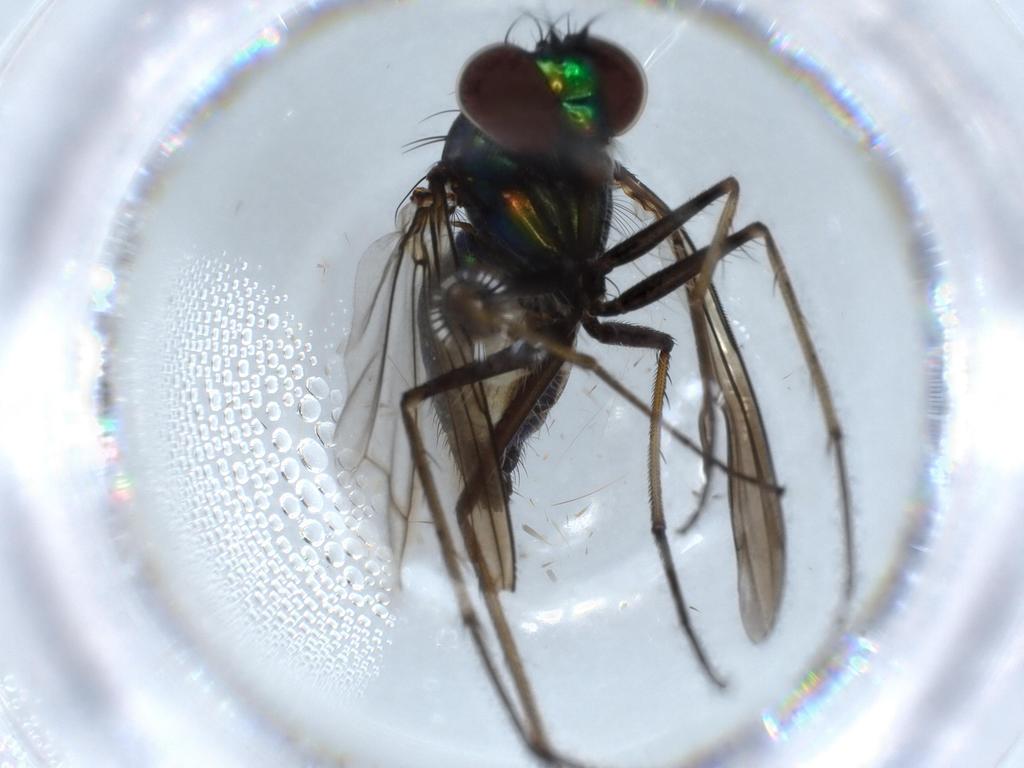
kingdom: Animalia
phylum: Arthropoda
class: Insecta
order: Diptera
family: Dolichopodidae
